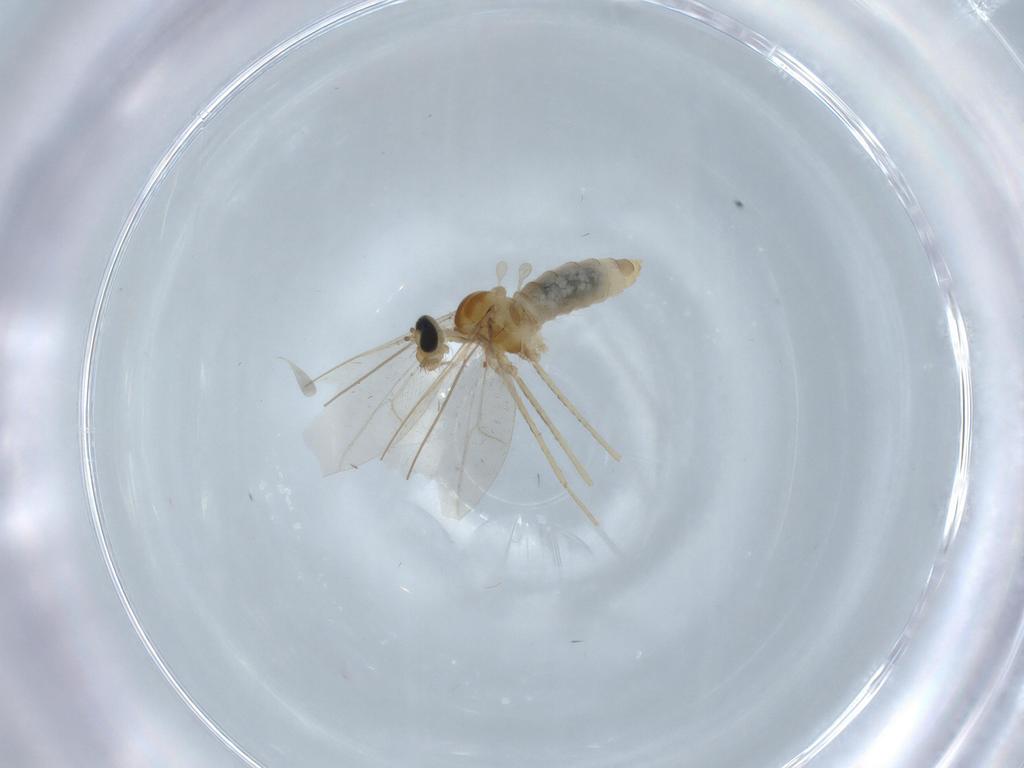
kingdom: Animalia
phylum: Arthropoda
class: Insecta
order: Diptera
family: Cecidomyiidae
